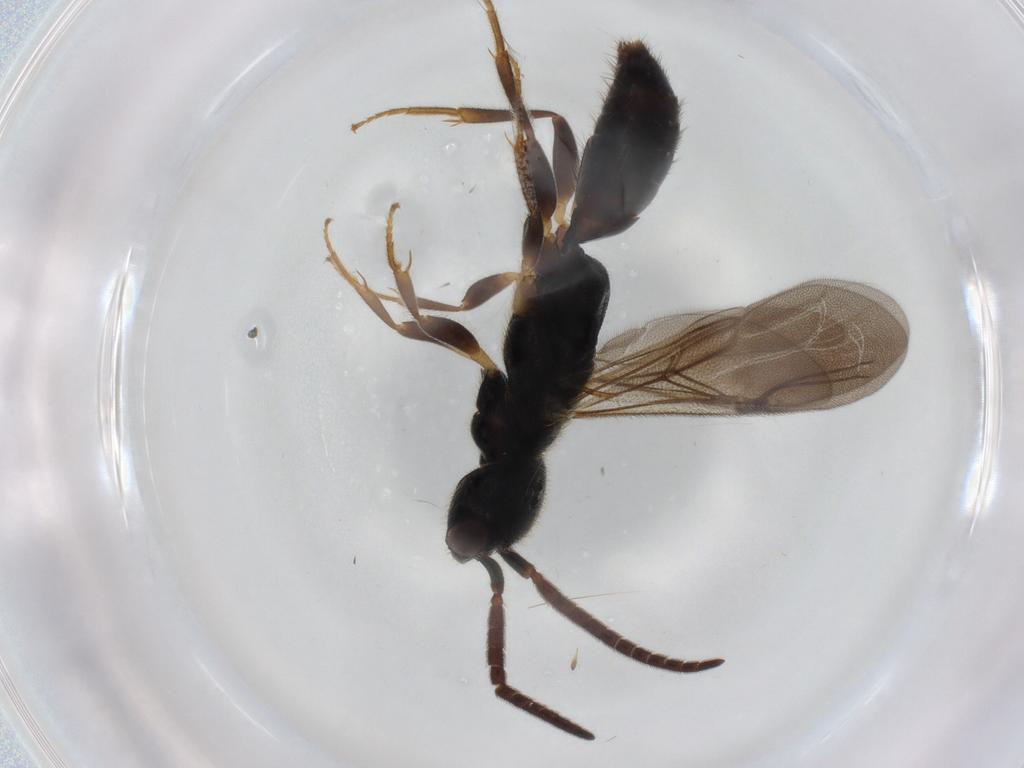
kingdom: Animalia
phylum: Arthropoda
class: Insecta
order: Hymenoptera
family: Bethylidae
